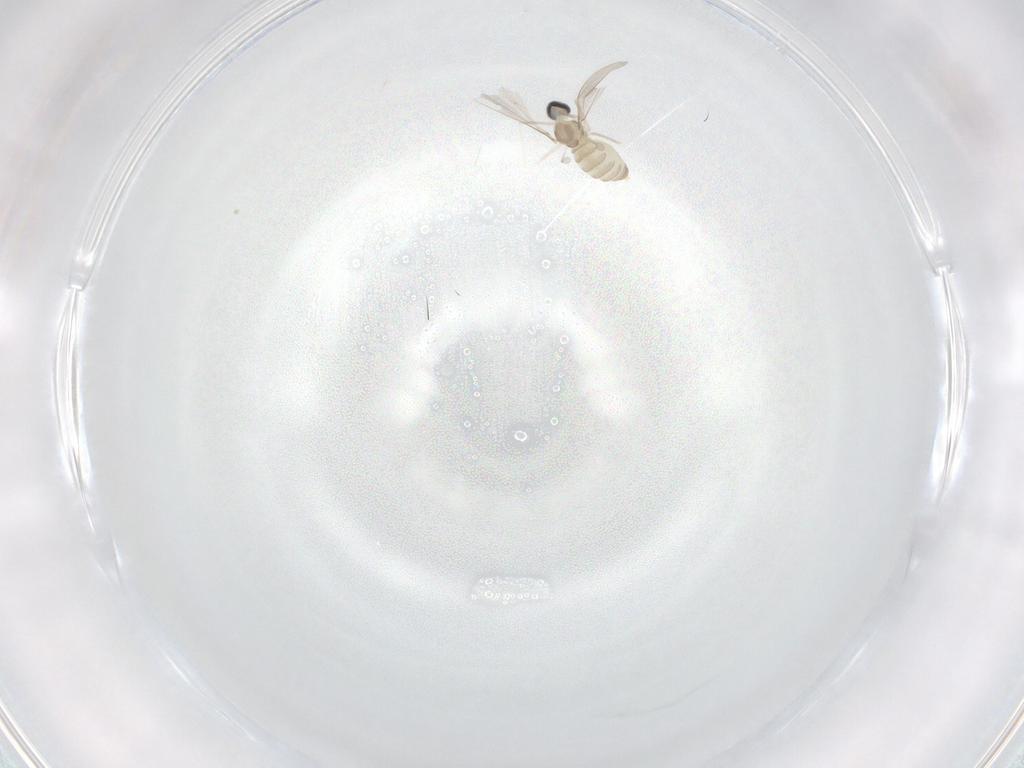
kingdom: Animalia
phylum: Arthropoda
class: Insecta
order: Diptera
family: Cecidomyiidae
